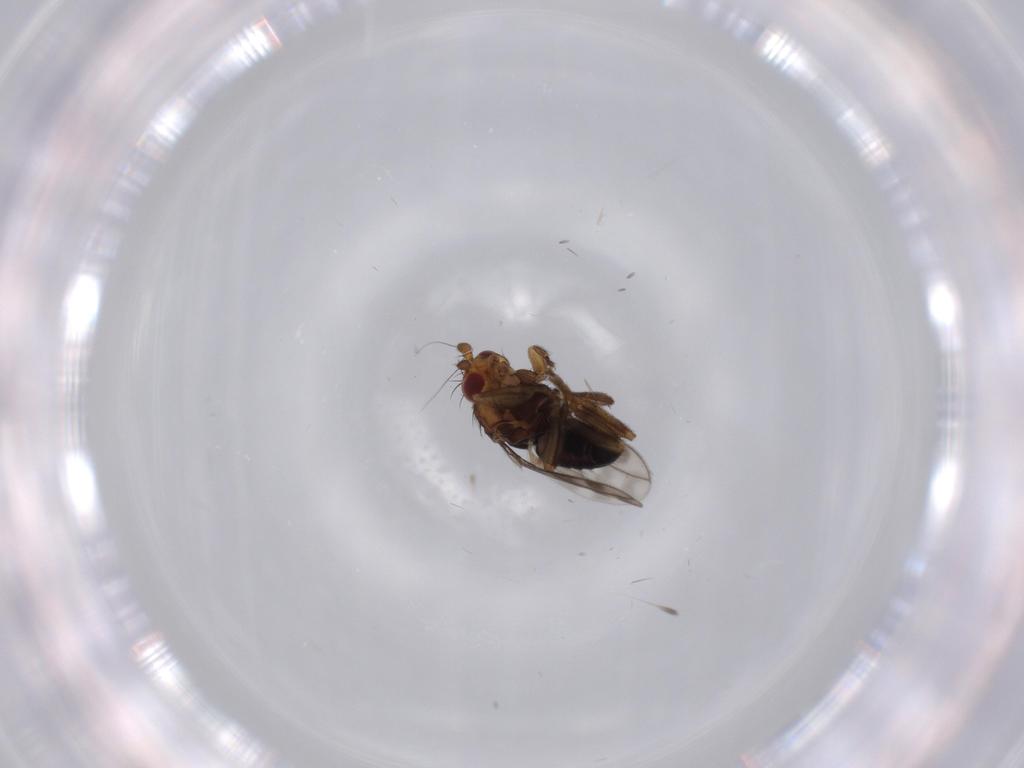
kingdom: Animalia
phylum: Arthropoda
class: Insecta
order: Diptera
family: Sphaeroceridae
